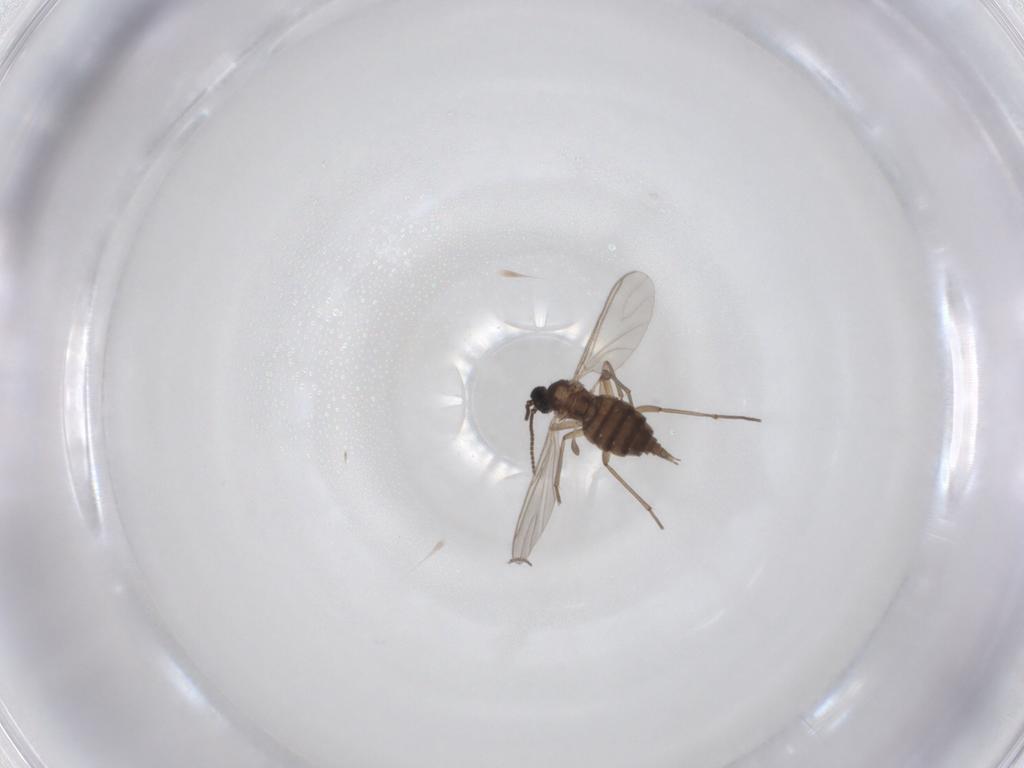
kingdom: Animalia
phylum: Arthropoda
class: Insecta
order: Diptera
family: Sciaridae
